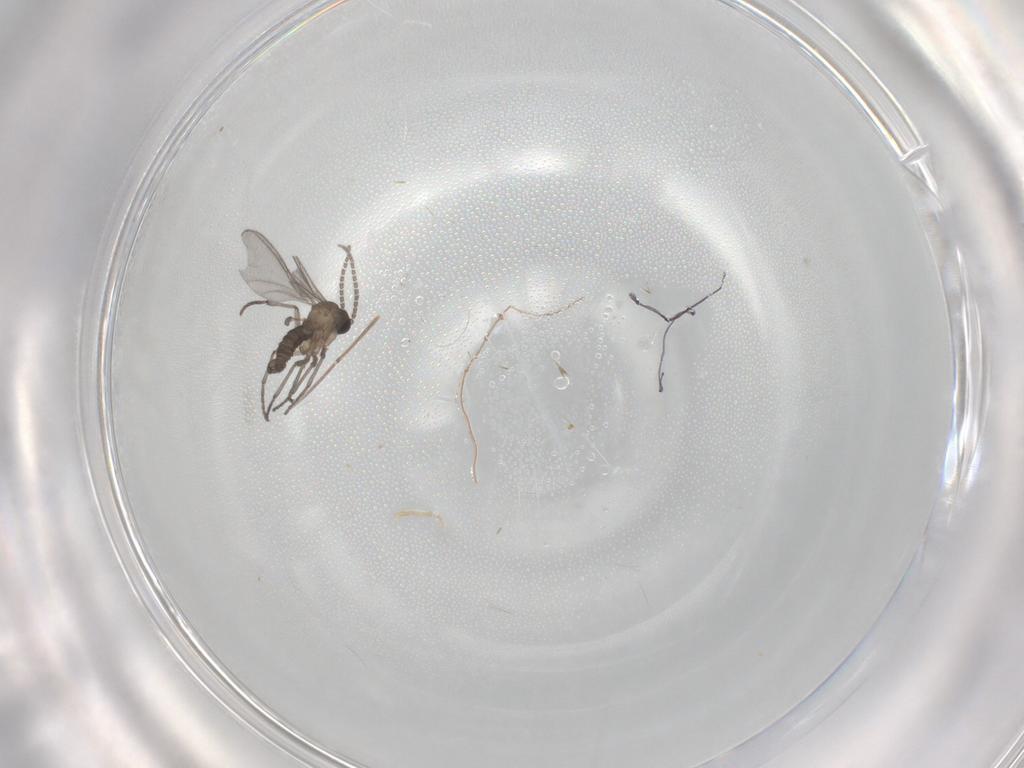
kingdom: Animalia
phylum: Arthropoda
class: Insecta
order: Diptera
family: Sciaridae
